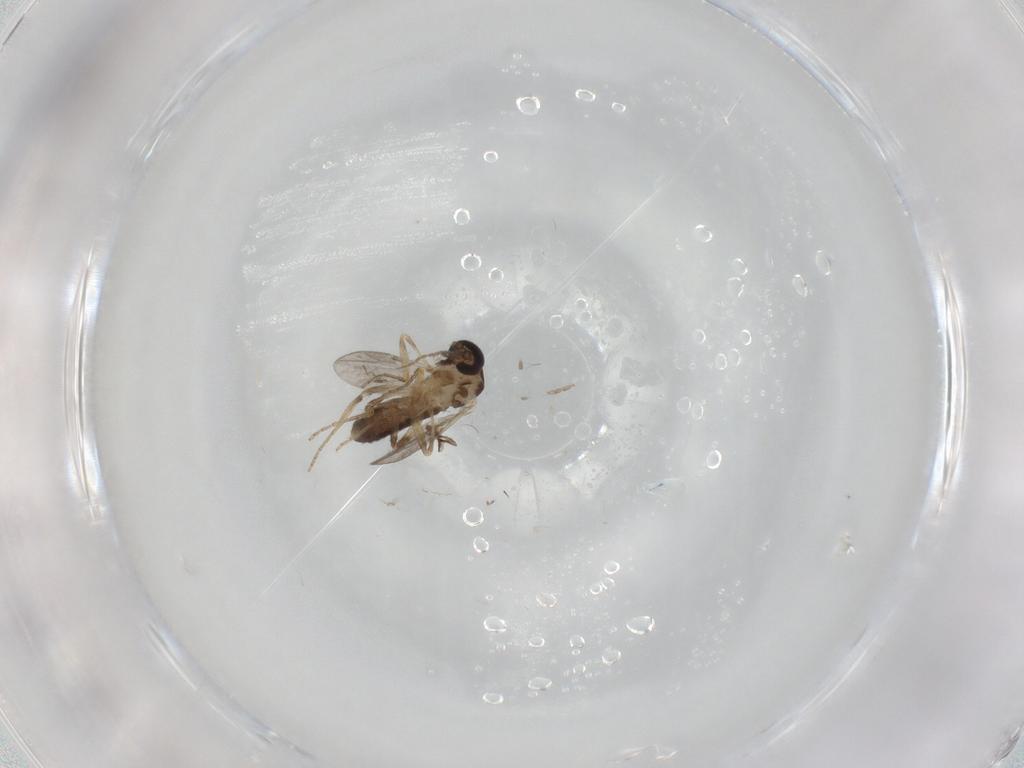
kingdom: Animalia
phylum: Arthropoda
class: Insecta
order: Diptera
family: Ceratopogonidae
